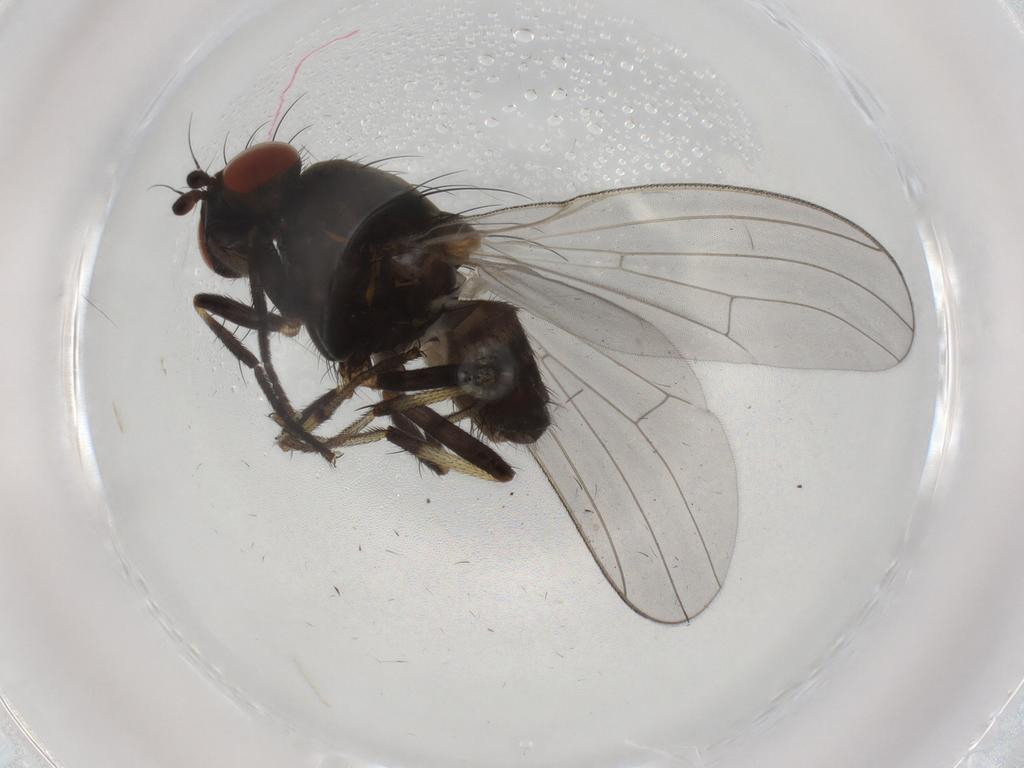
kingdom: Animalia
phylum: Arthropoda
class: Insecta
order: Diptera
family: Lauxaniidae
